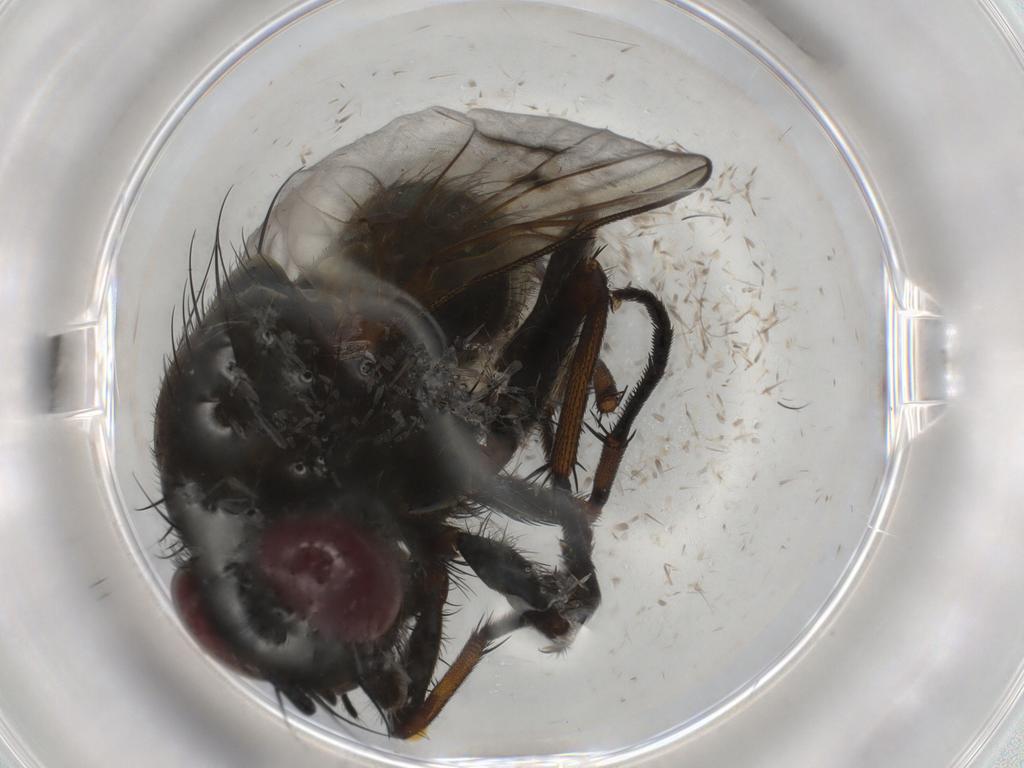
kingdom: Animalia
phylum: Arthropoda
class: Insecta
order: Diptera
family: Muscidae
